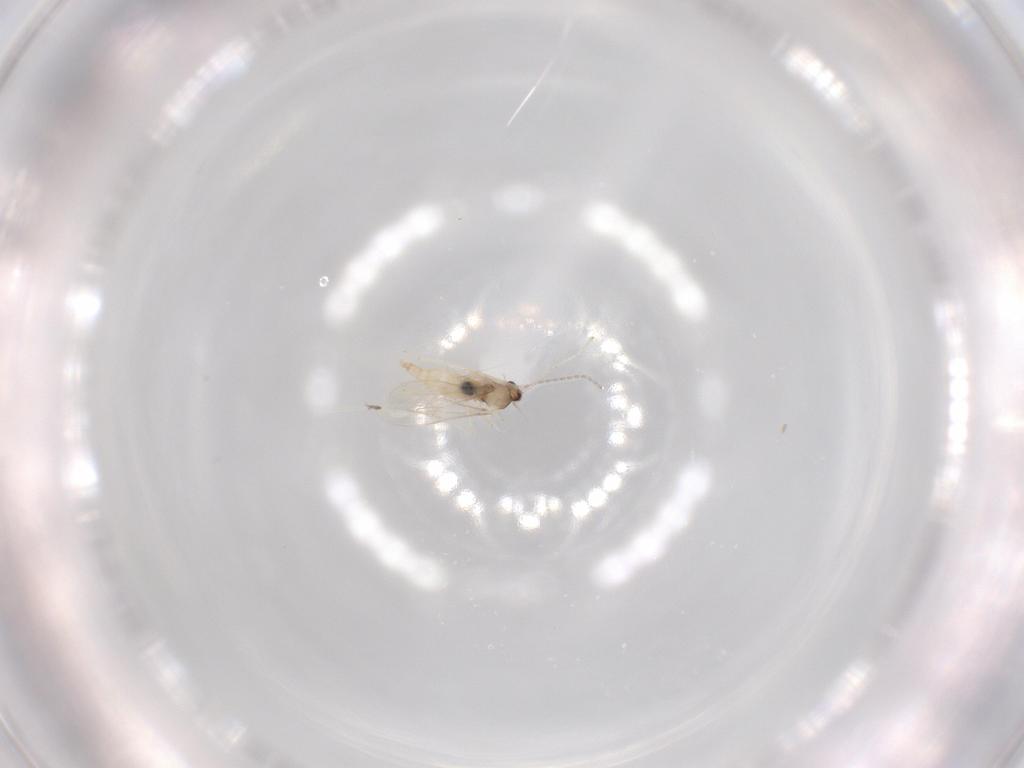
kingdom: Animalia
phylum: Arthropoda
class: Insecta
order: Diptera
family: Cecidomyiidae
